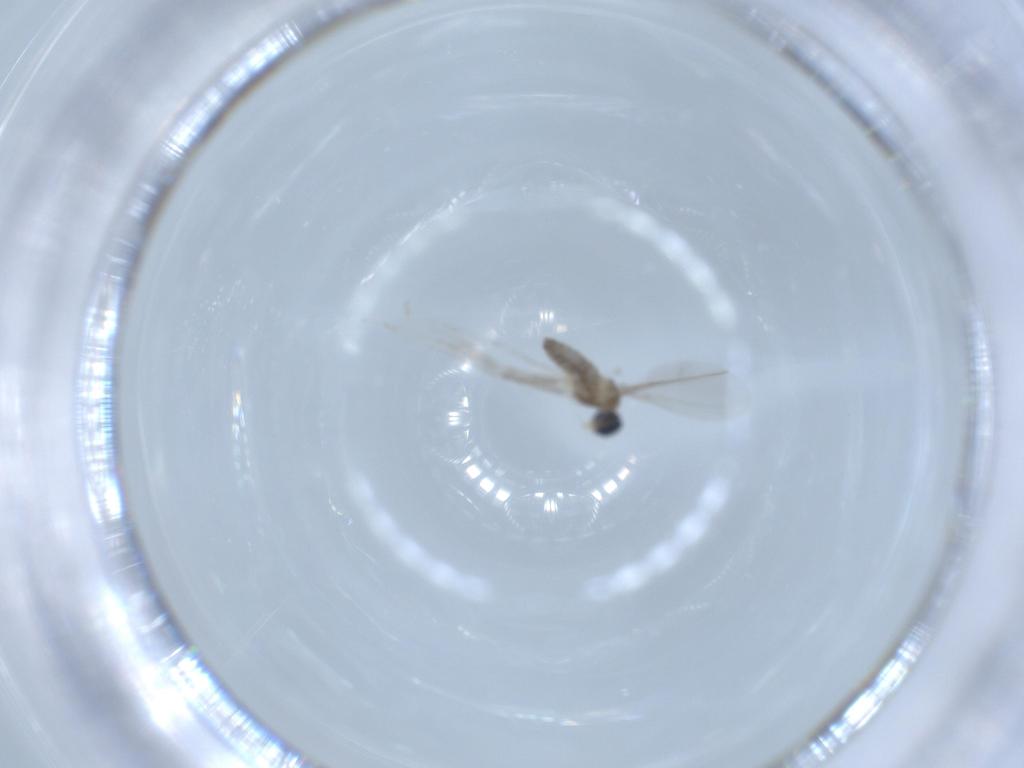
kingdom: Animalia
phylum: Arthropoda
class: Insecta
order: Diptera
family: Cecidomyiidae
